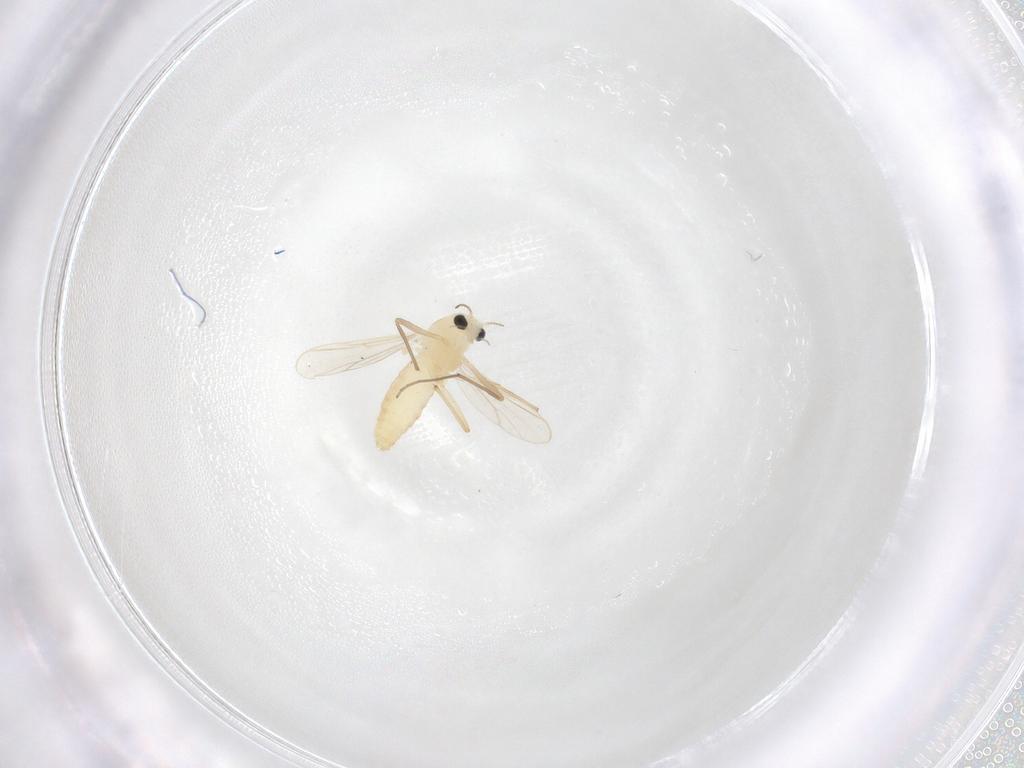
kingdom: Animalia
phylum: Arthropoda
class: Insecta
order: Diptera
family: Chironomidae
